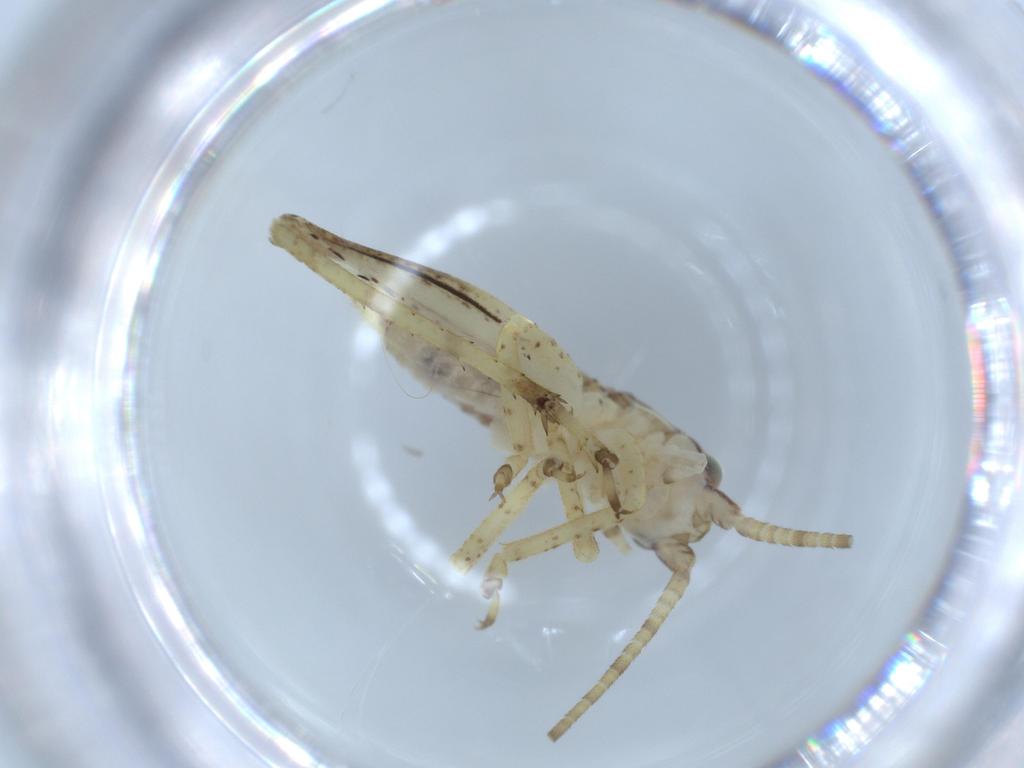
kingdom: Animalia
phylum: Arthropoda
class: Insecta
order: Orthoptera
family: Gryllidae
